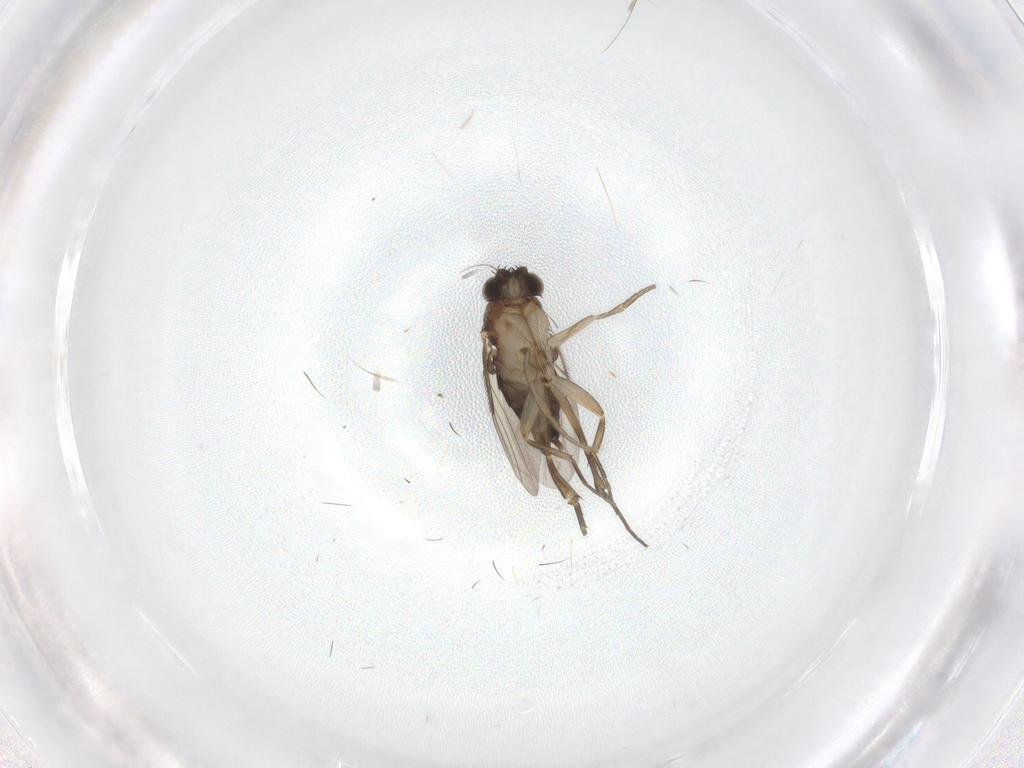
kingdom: Animalia
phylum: Arthropoda
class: Insecta
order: Diptera
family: Phoridae
